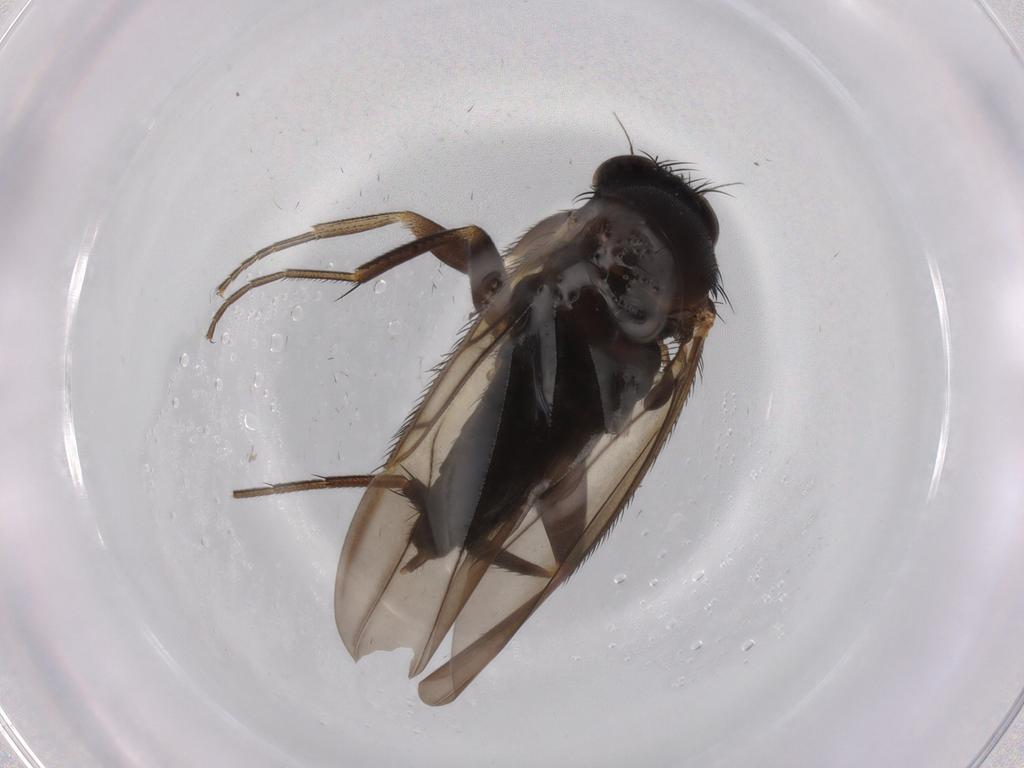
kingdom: Animalia
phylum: Arthropoda
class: Insecta
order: Diptera
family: Phoridae
